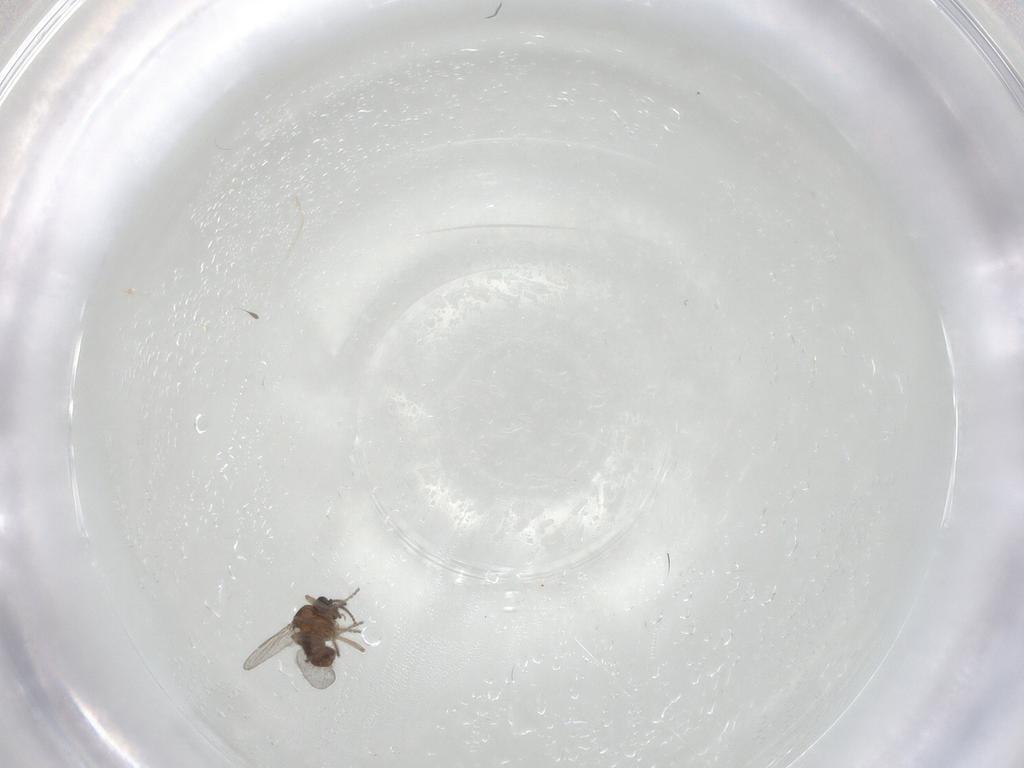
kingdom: Animalia
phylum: Arthropoda
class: Insecta
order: Diptera
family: Ceratopogonidae
